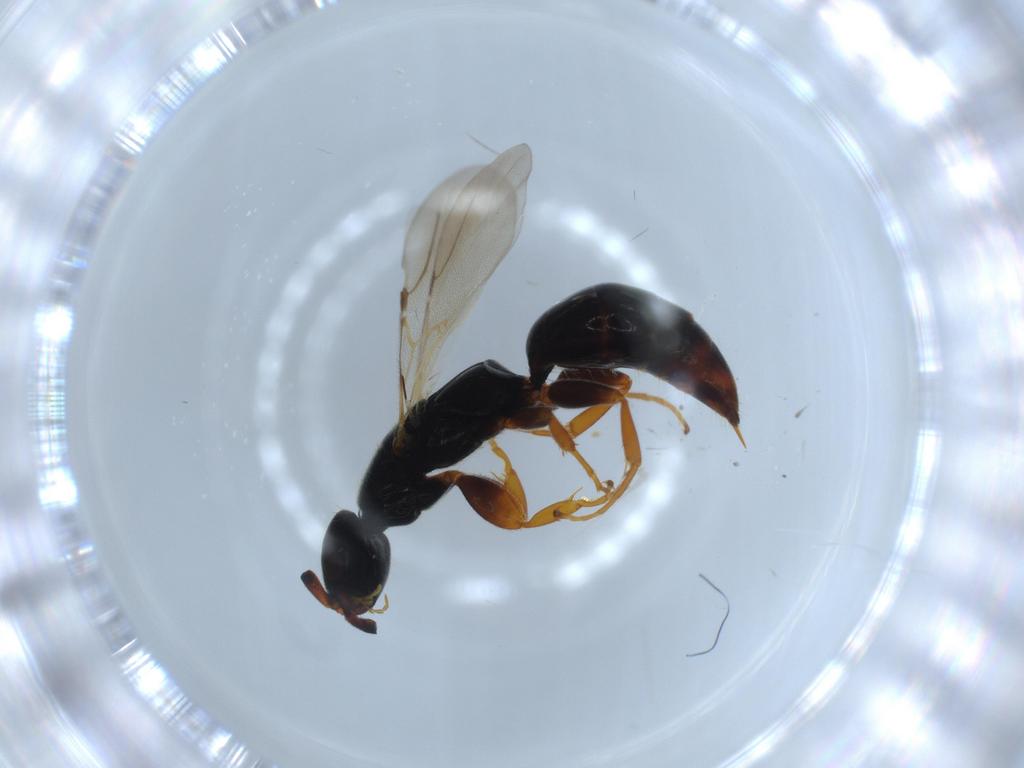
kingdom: Animalia
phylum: Arthropoda
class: Insecta
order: Hymenoptera
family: Bethylidae
